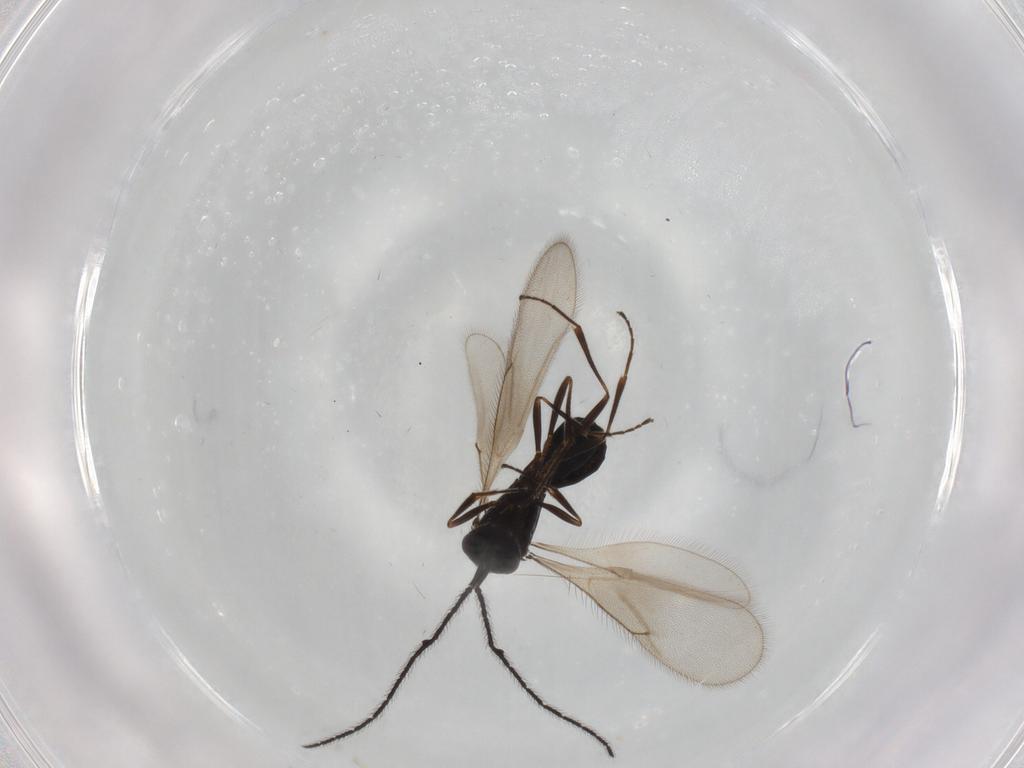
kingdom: Animalia
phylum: Arthropoda
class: Insecta
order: Hymenoptera
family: Scelionidae
